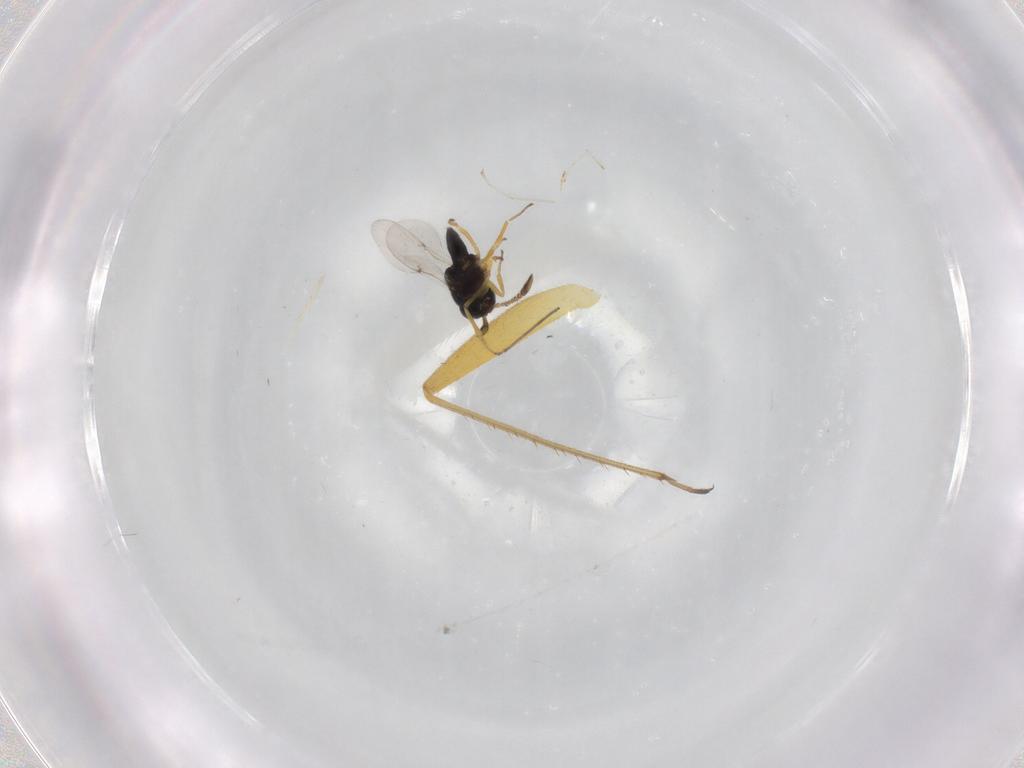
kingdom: Animalia
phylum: Arthropoda
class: Insecta
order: Hymenoptera
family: Encyrtidae
